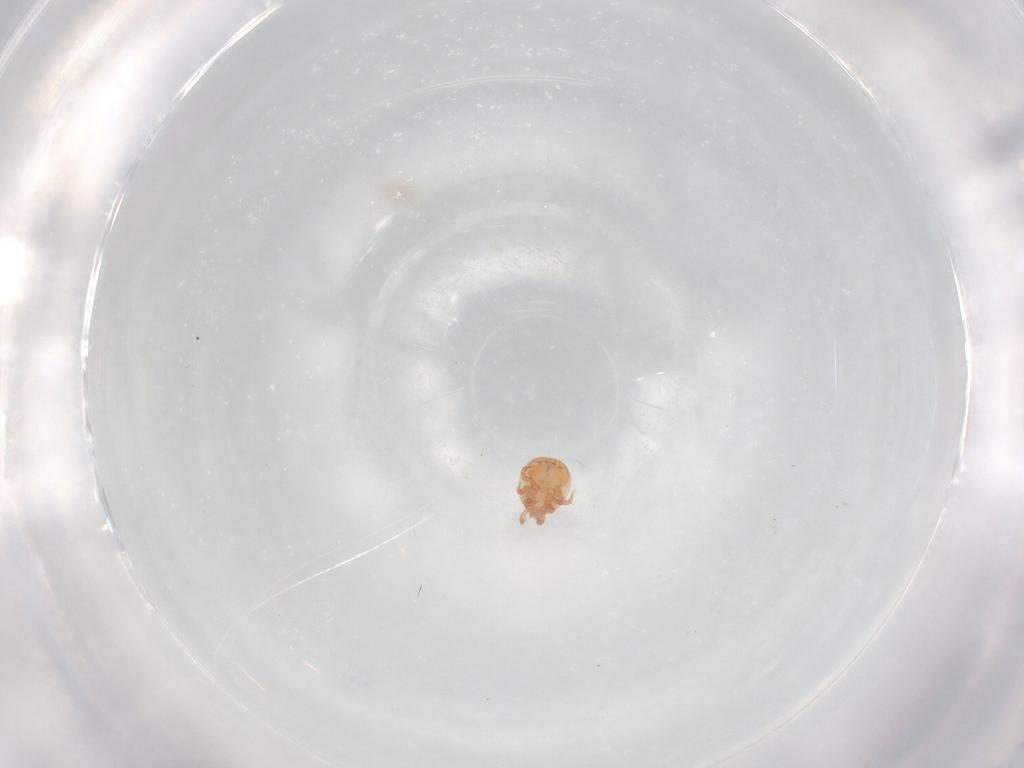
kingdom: Animalia
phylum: Arthropoda
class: Arachnida
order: Mesostigmata
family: Zerconidae
